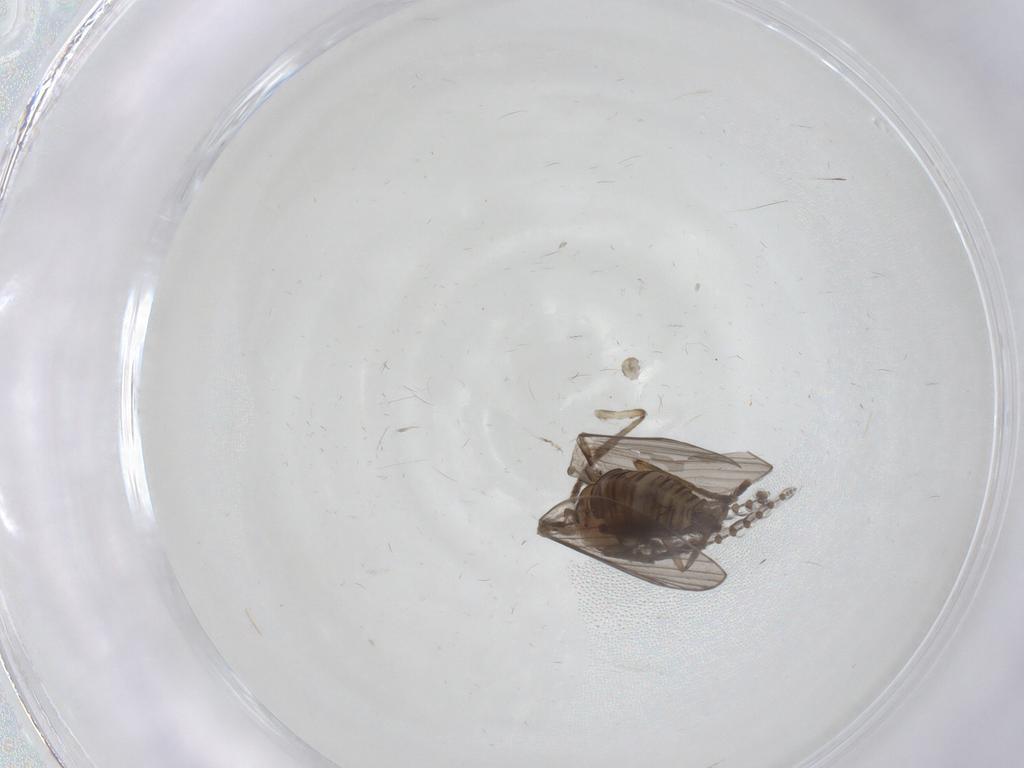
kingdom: Animalia
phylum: Arthropoda
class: Insecta
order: Diptera
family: Psychodidae
